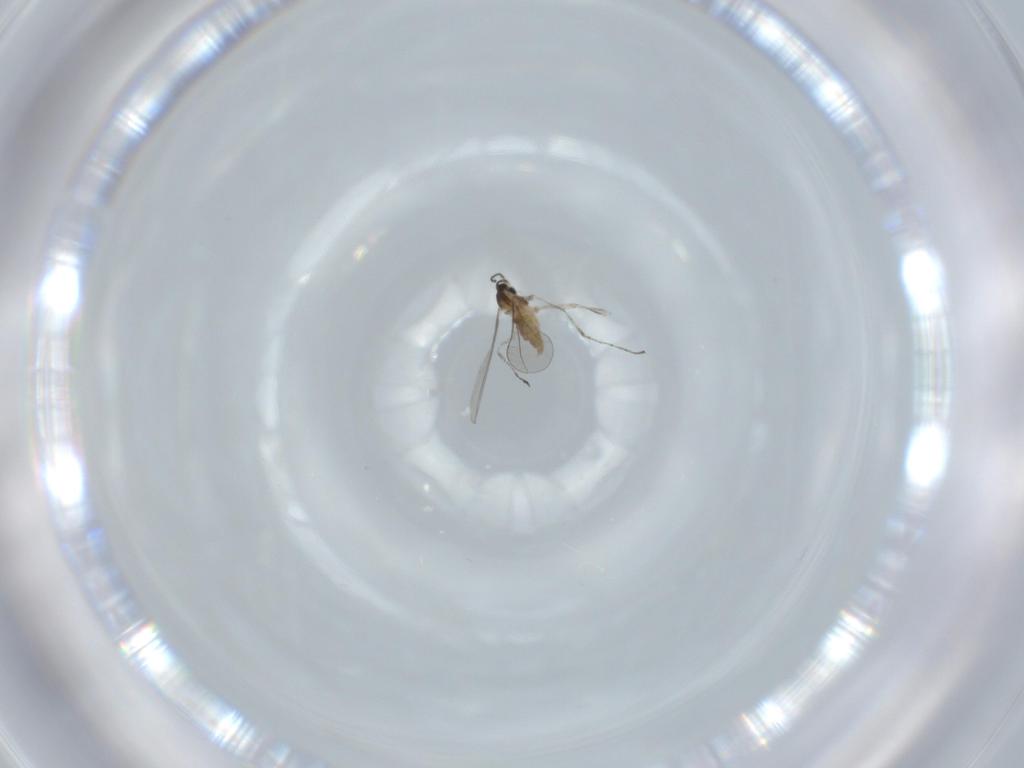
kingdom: Animalia
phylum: Arthropoda
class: Insecta
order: Diptera
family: Cecidomyiidae
